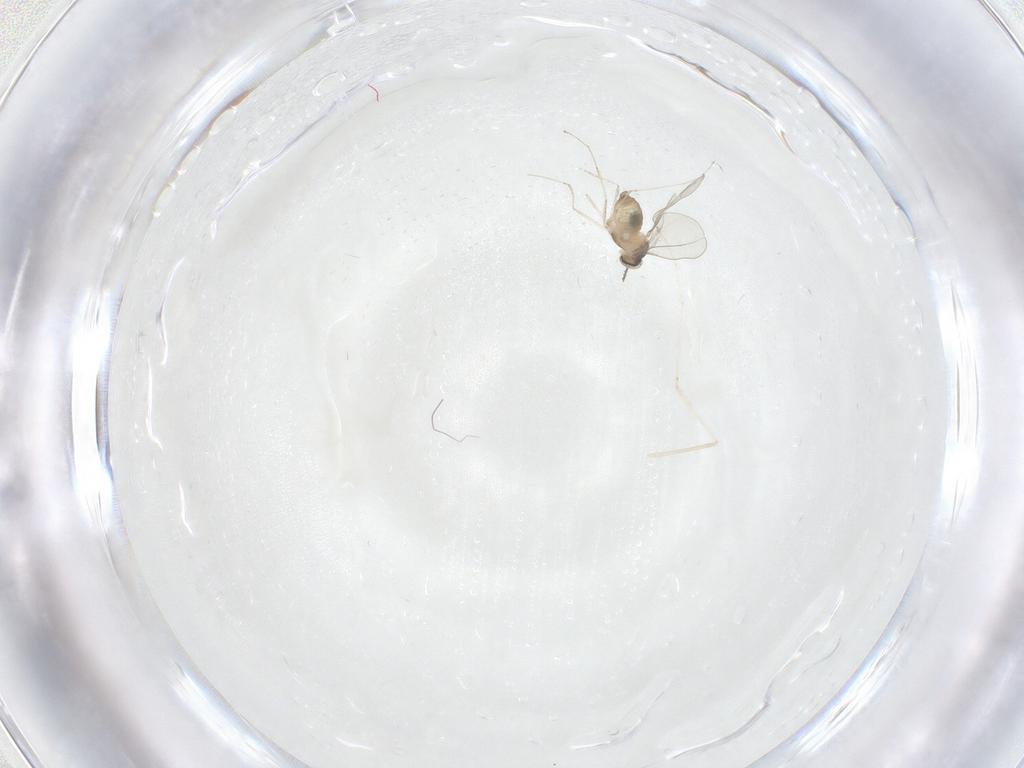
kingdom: Animalia
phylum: Arthropoda
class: Insecta
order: Diptera
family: Cecidomyiidae
